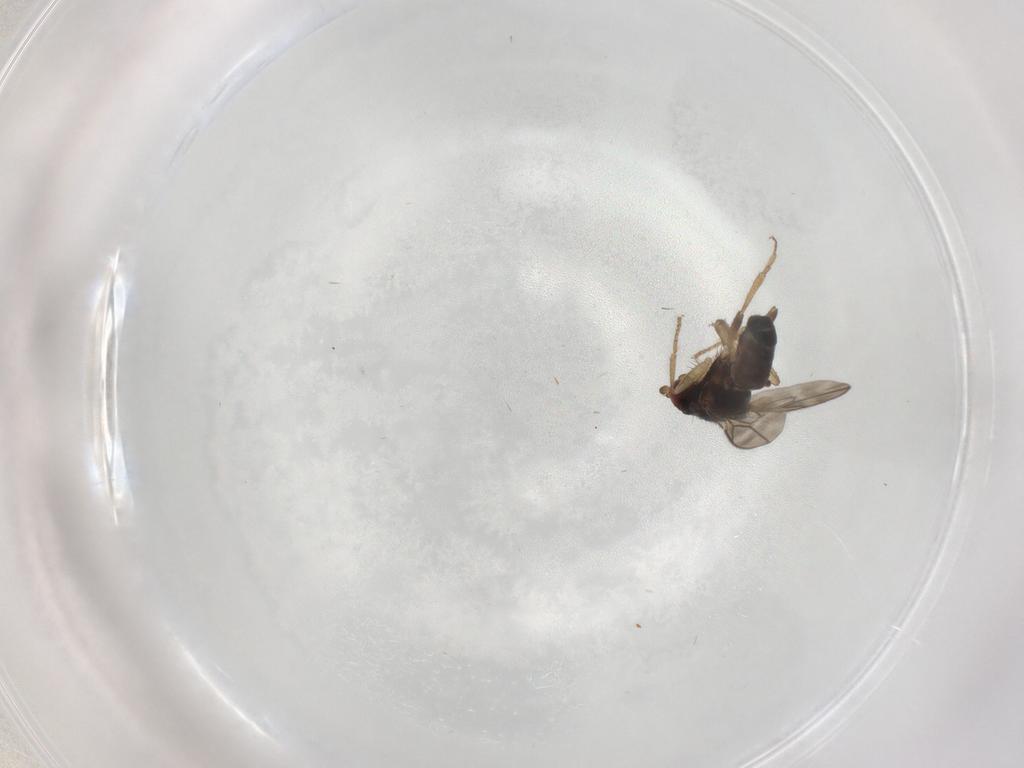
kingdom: Animalia
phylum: Arthropoda
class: Insecta
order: Diptera
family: Sphaeroceridae
